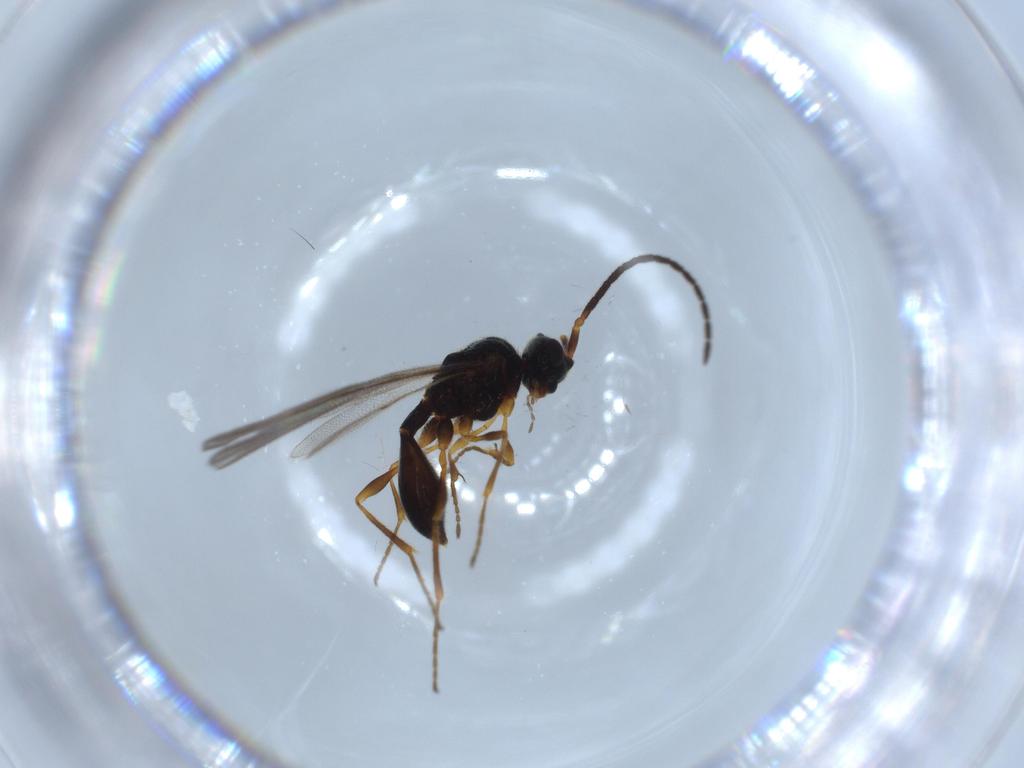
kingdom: Animalia
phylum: Arthropoda
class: Insecta
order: Hymenoptera
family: Diapriidae
